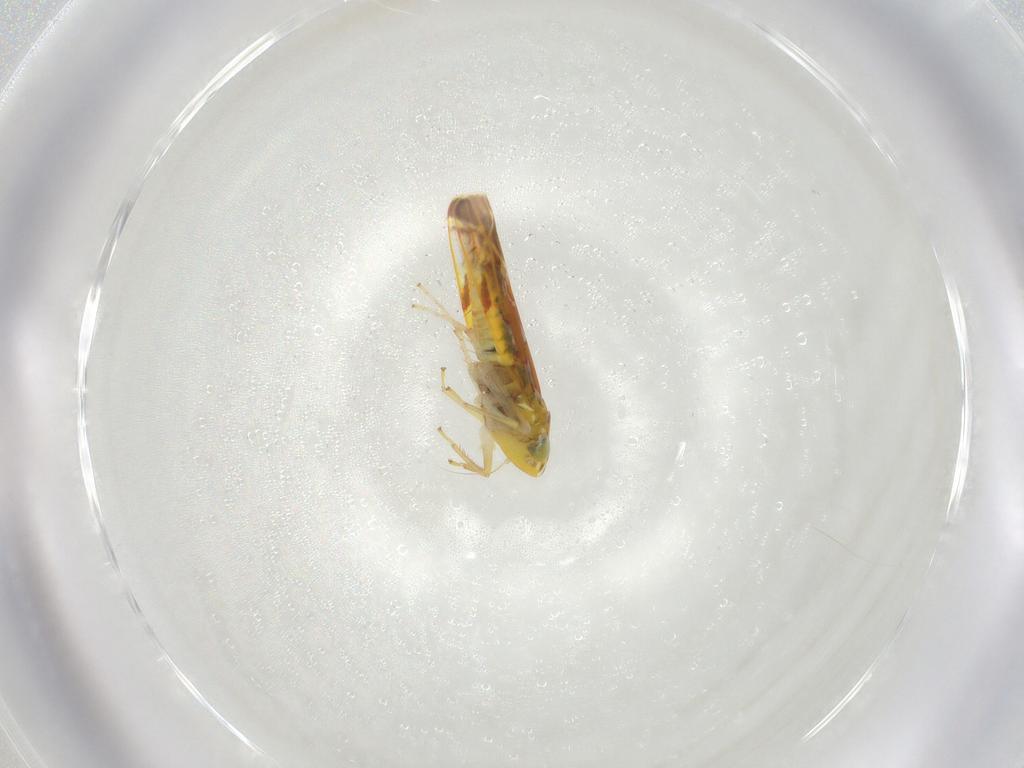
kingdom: Animalia
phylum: Arthropoda
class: Insecta
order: Hemiptera
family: Cicadellidae
